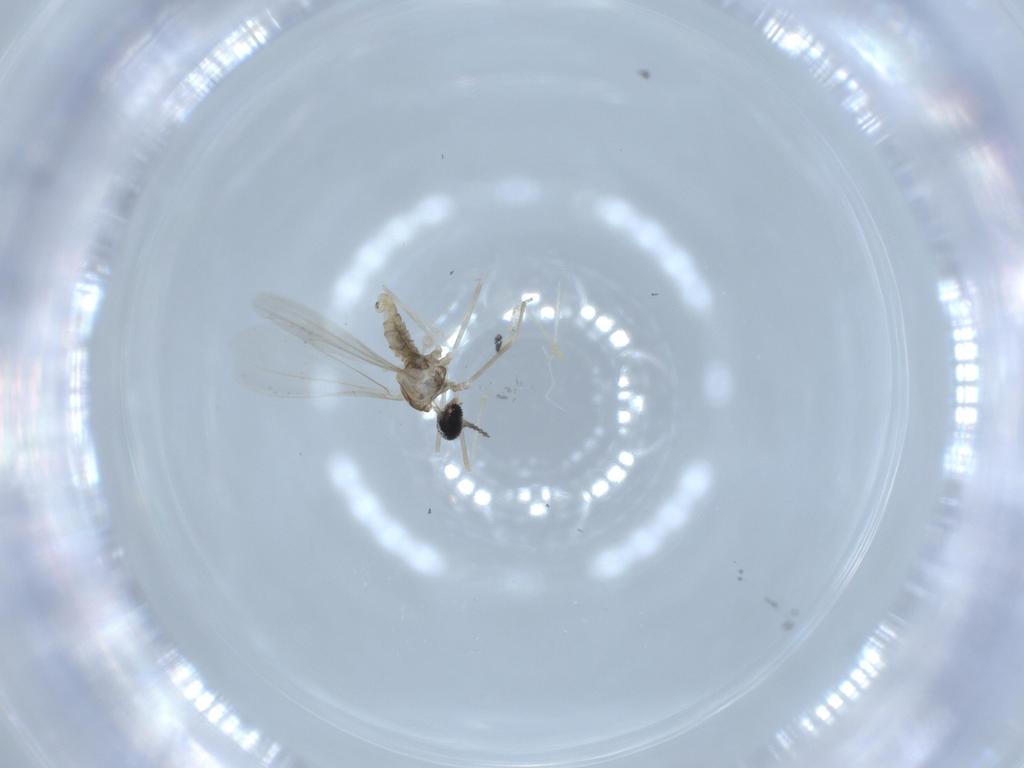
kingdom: Animalia
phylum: Arthropoda
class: Insecta
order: Diptera
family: Cecidomyiidae
